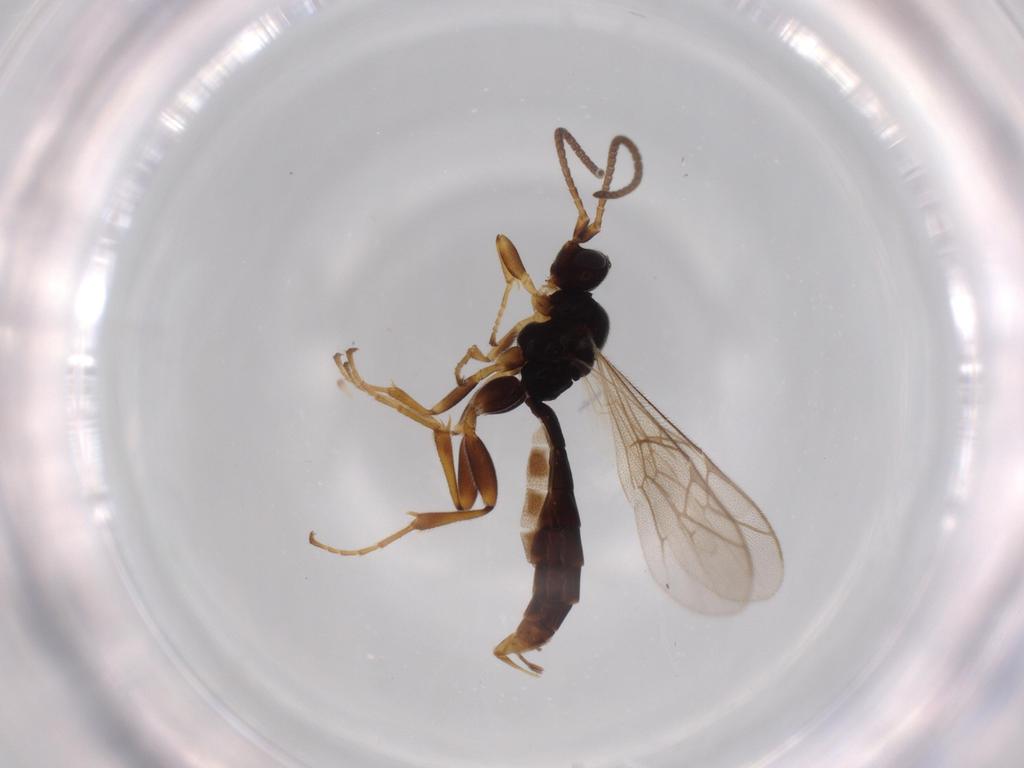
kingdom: Animalia
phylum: Arthropoda
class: Insecta
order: Hymenoptera
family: Ichneumonidae
